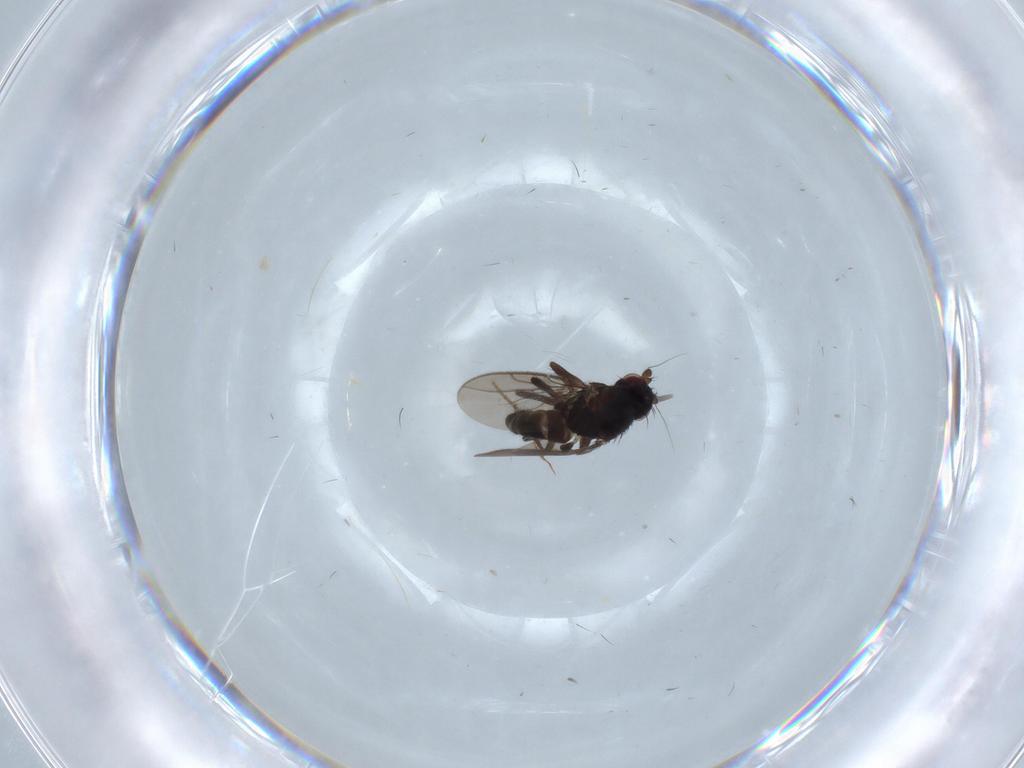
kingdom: Animalia
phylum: Arthropoda
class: Insecta
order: Diptera
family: Sphaeroceridae
